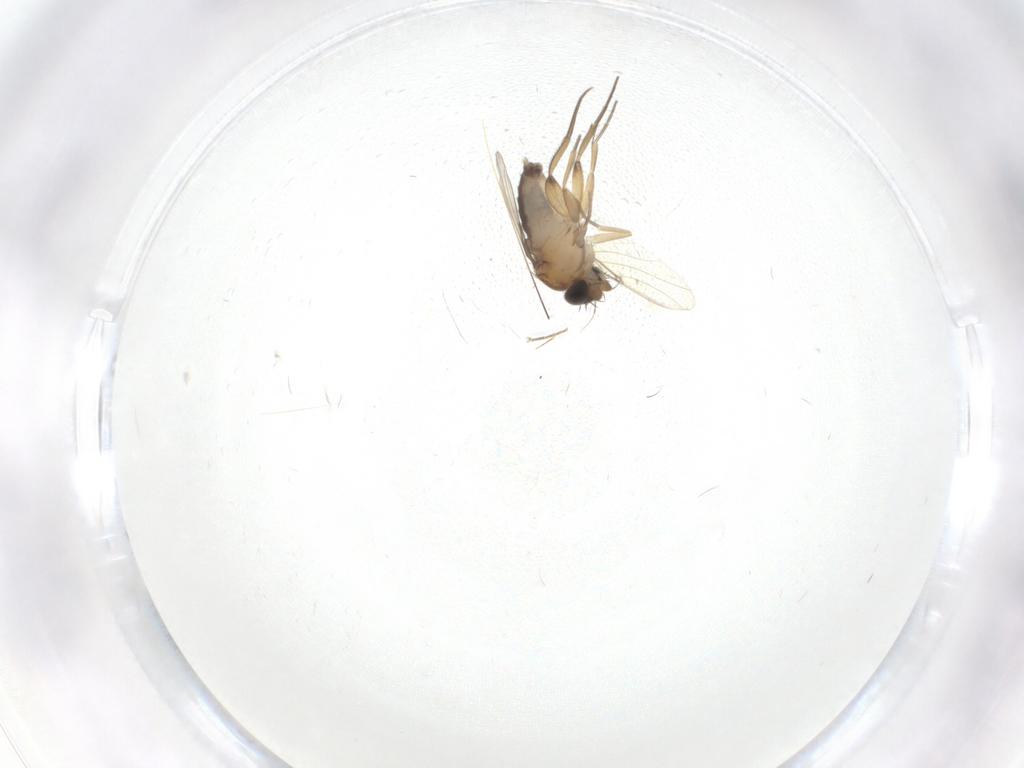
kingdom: Animalia
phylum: Arthropoda
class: Insecta
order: Diptera
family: Phoridae
